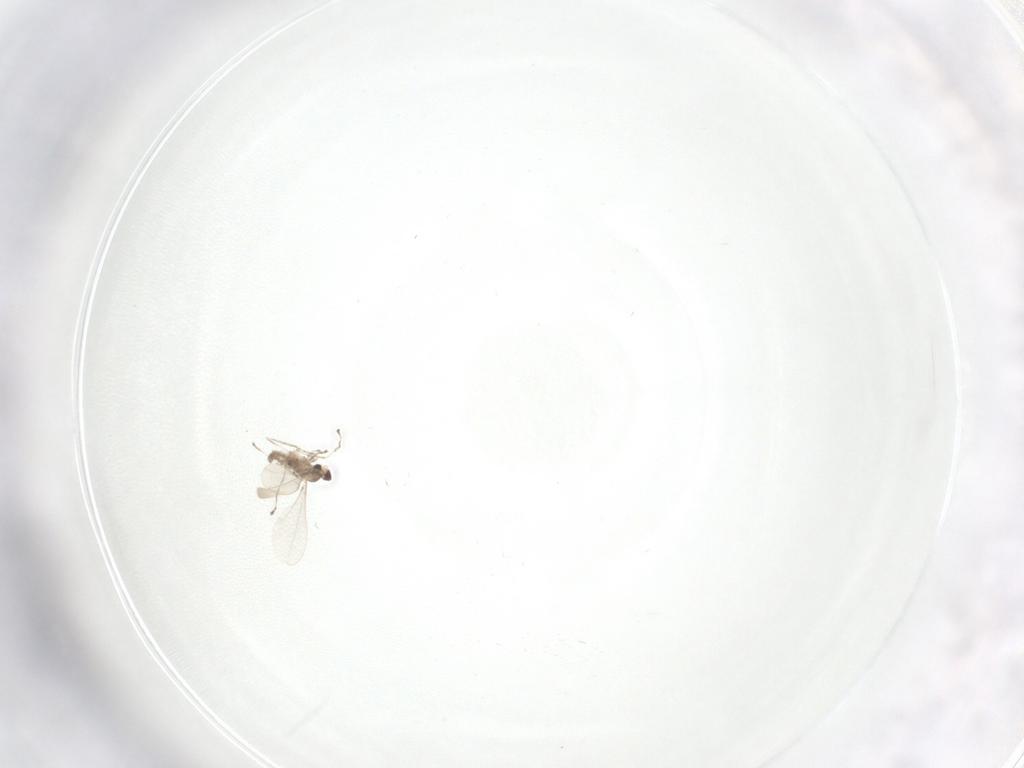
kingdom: Animalia
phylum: Arthropoda
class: Insecta
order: Diptera
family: Cecidomyiidae
